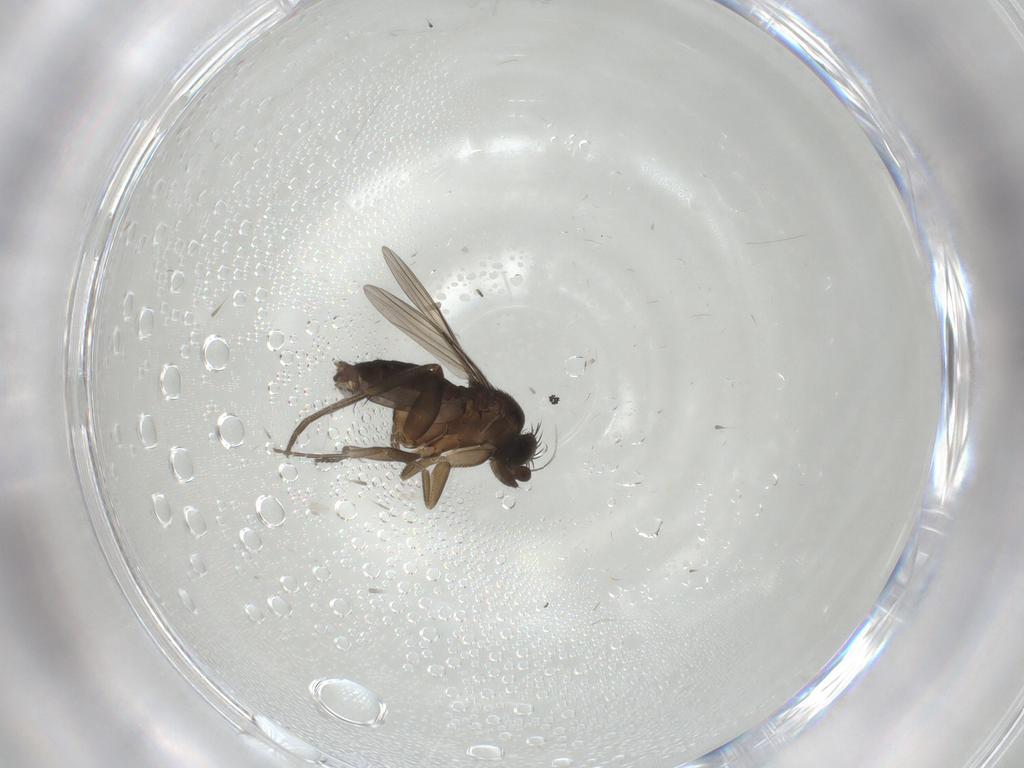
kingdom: Animalia
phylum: Arthropoda
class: Insecta
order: Diptera
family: Phoridae
